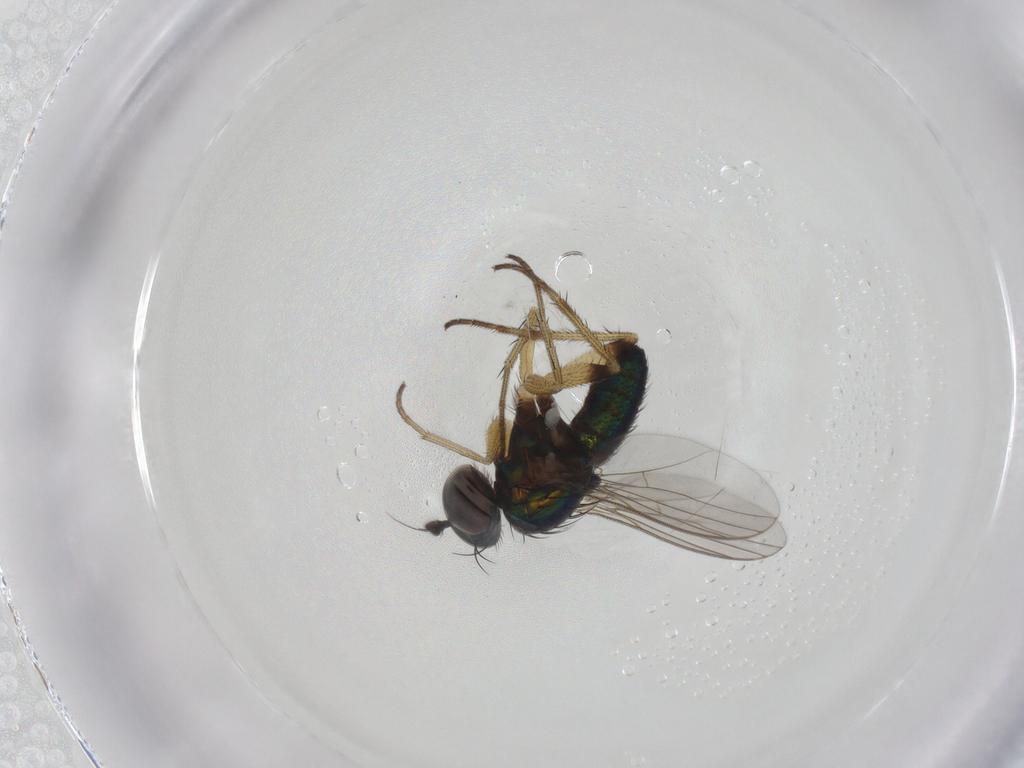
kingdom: Animalia
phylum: Arthropoda
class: Insecta
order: Diptera
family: Dolichopodidae
